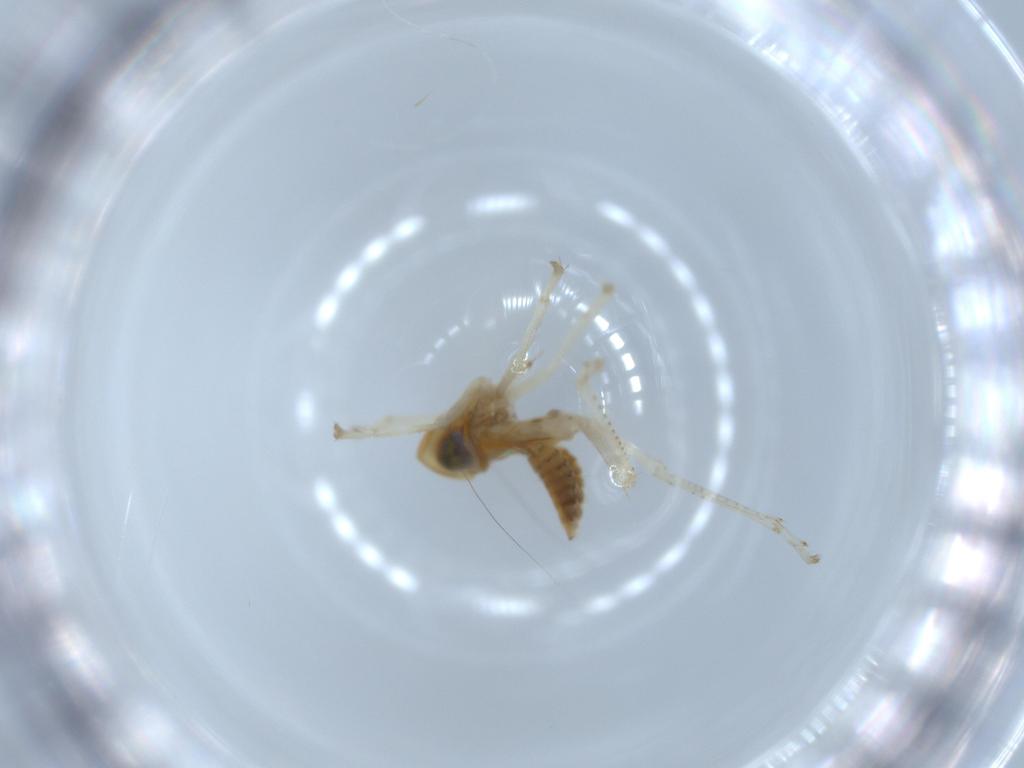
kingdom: Animalia
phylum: Arthropoda
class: Insecta
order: Hemiptera
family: Cicadellidae
